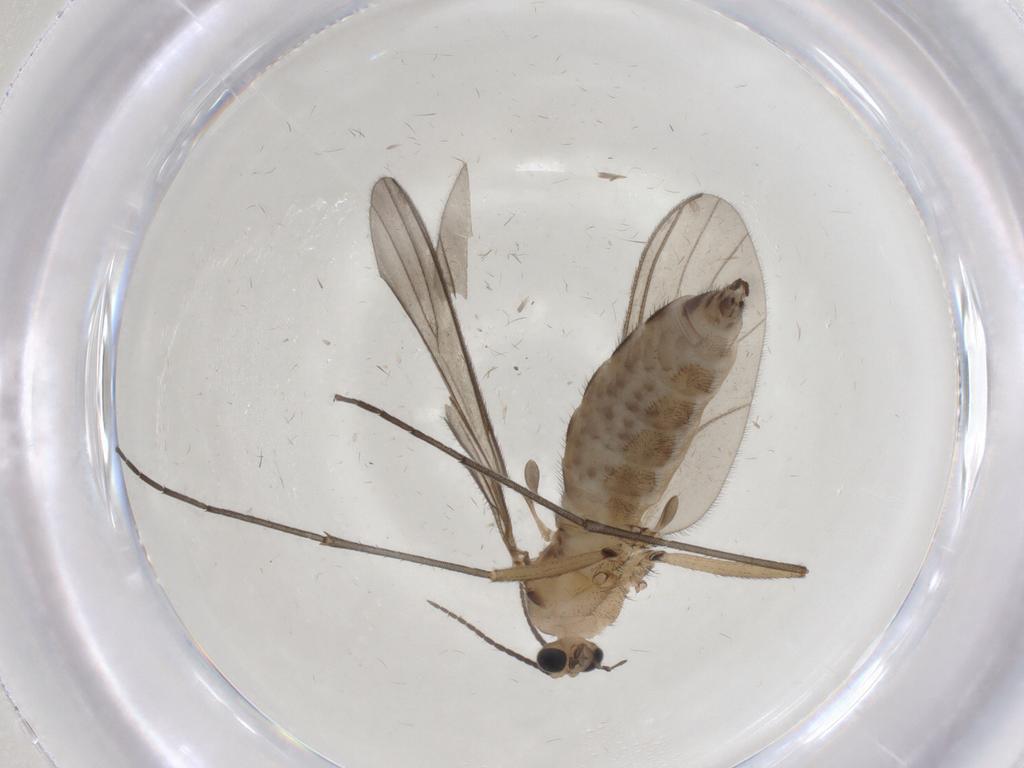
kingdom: Animalia
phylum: Arthropoda
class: Insecta
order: Diptera
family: Sciaridae
